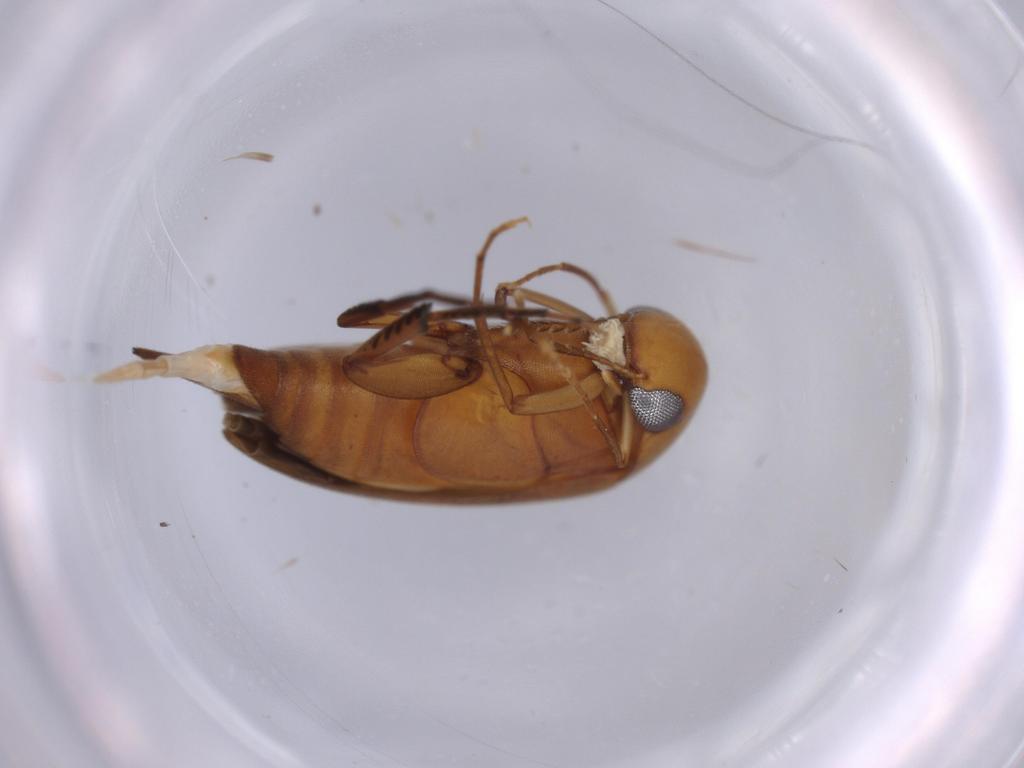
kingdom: Animalia
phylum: Arthropoda
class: Insecta
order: Coleoptera
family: Mordellidae
